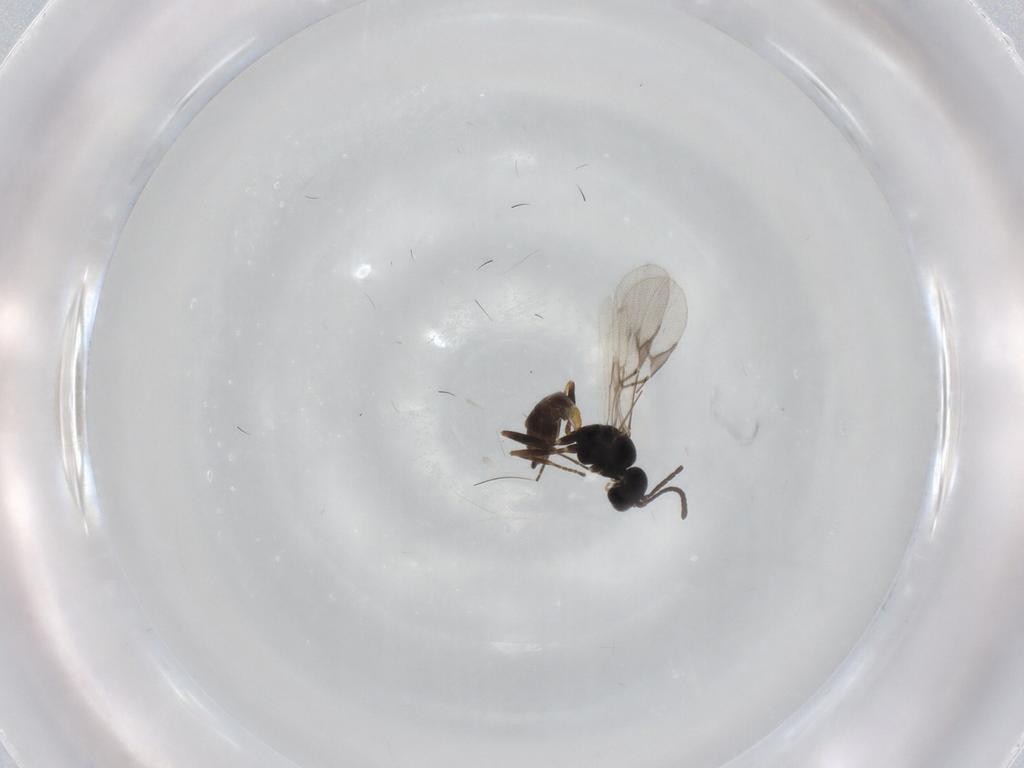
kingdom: Animalia
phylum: Arthropoda
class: Insecta
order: Hymenoptera
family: Braconidae
